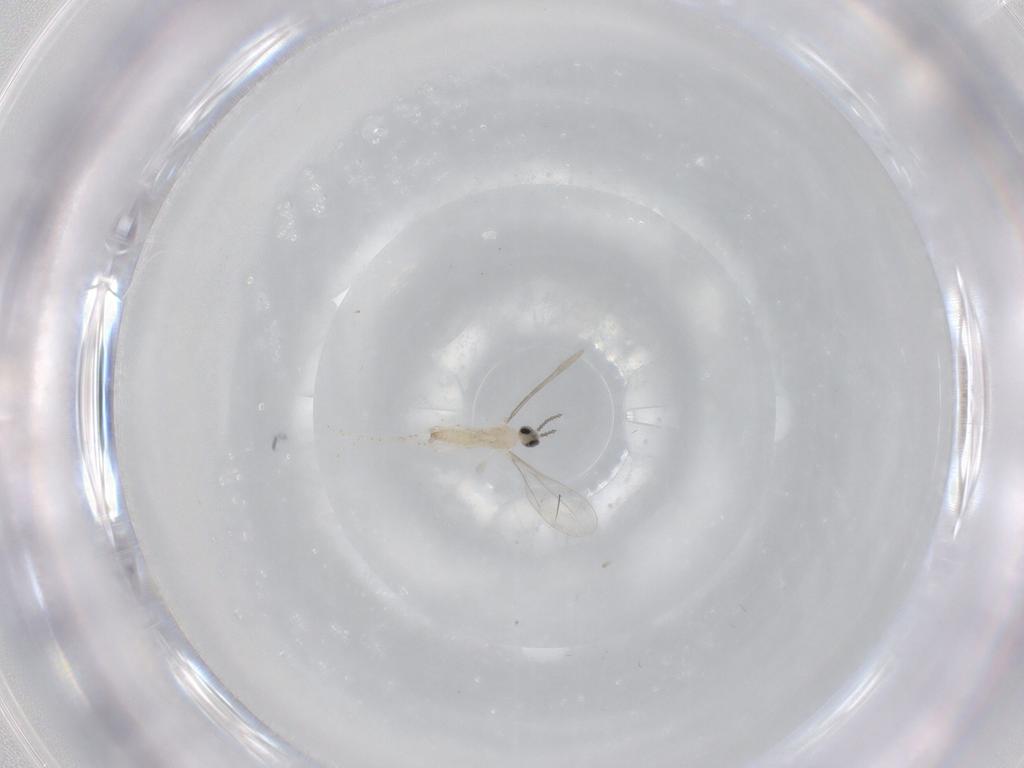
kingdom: Animalia
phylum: Arthropoda
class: Insecta
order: Diptera
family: Cecidomyiidae
